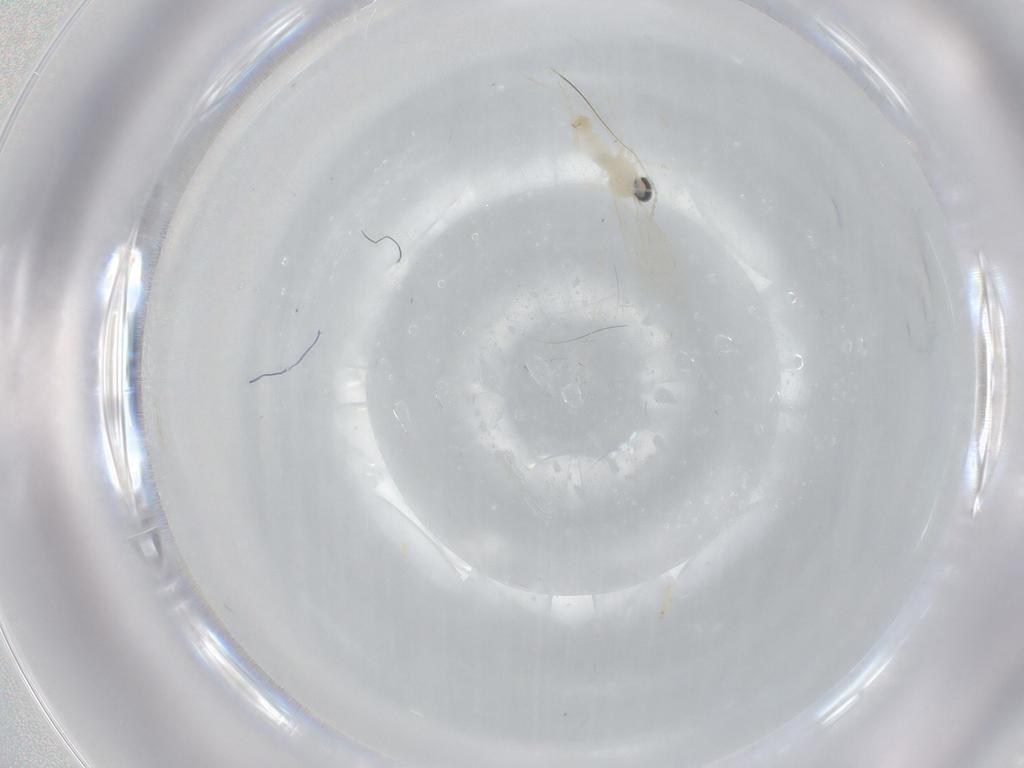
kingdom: Animalia
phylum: Arthropoda
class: Insecta
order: Diptera
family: Cecidomyiidae
